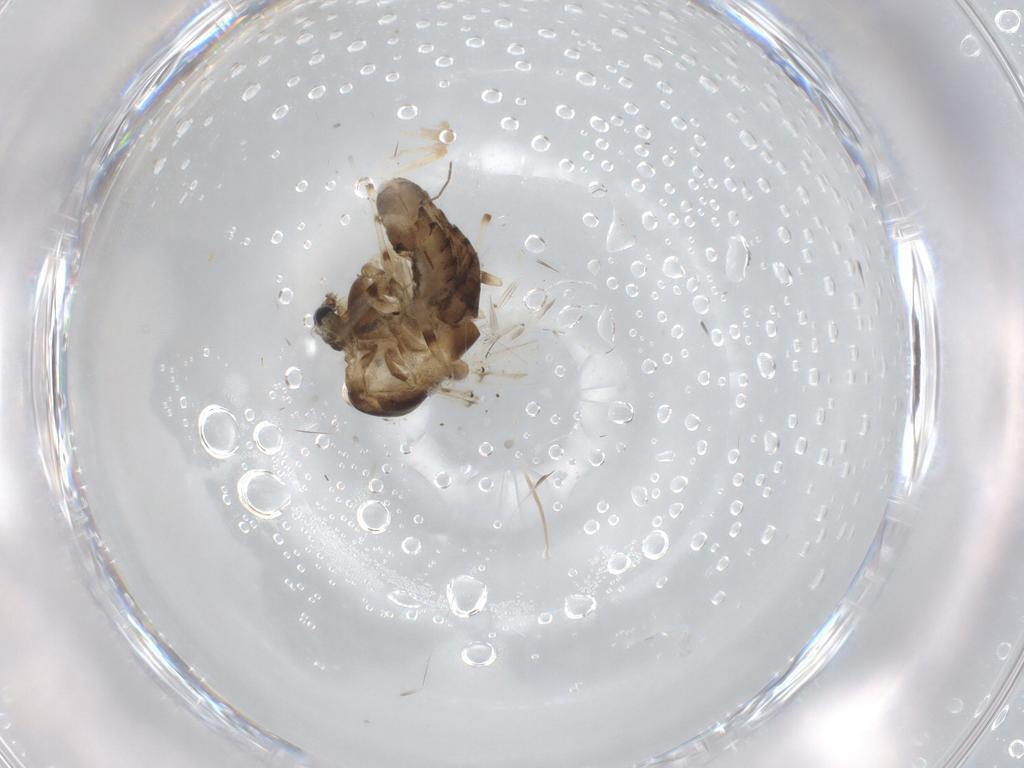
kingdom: Animalia
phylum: Arthropoda
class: Insecta
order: Diptera
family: Chironomidae
